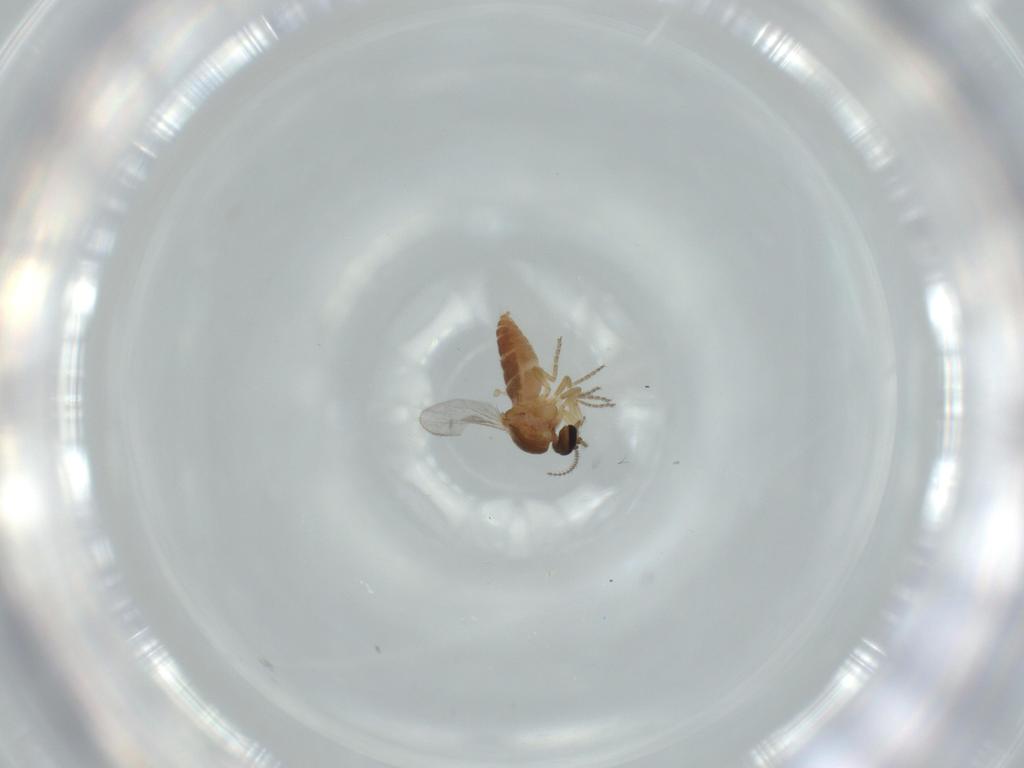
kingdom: Animalia
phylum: Arthropoda
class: Insecta
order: Diptera
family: Ceratopogonidae
